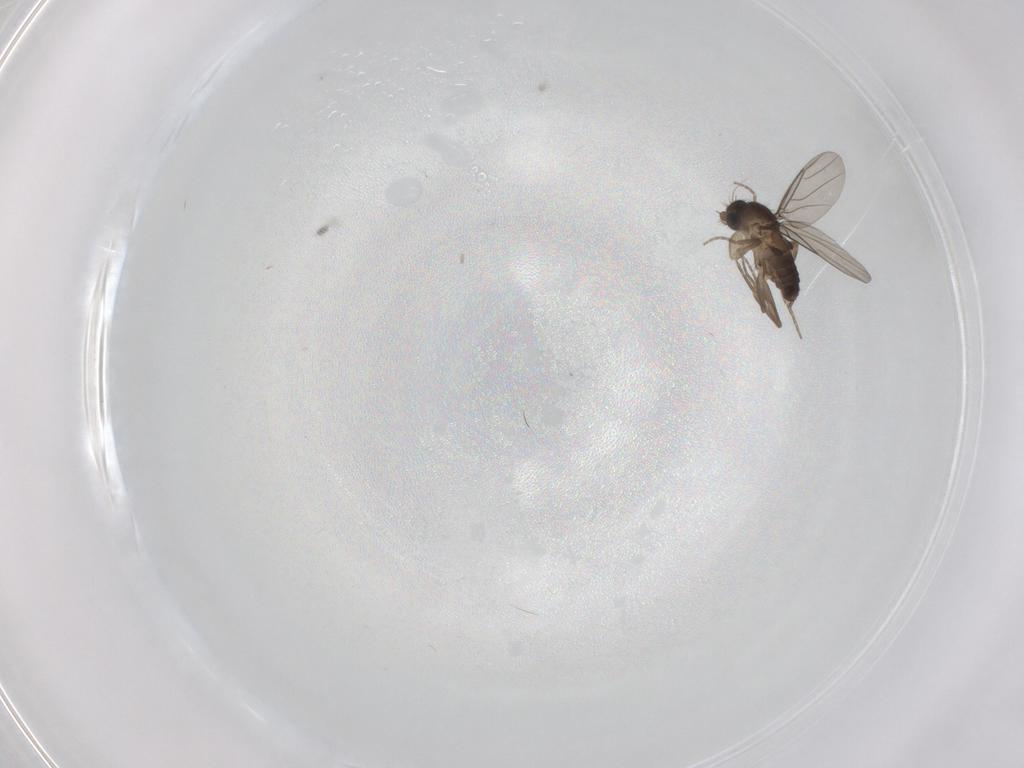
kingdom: Animalia
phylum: Arthropoda
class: Insecta
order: Diptera
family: Phoridae
